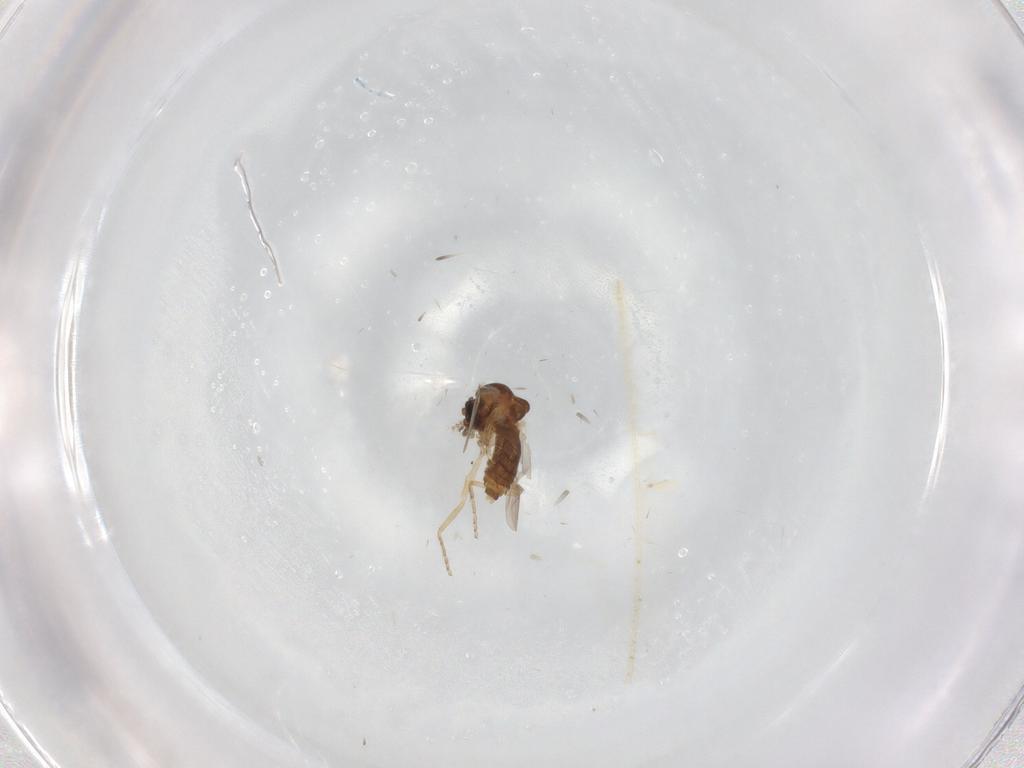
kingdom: Animalia
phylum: Arthropoda
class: Insecta
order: Diptera
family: Ceratopogonidae
